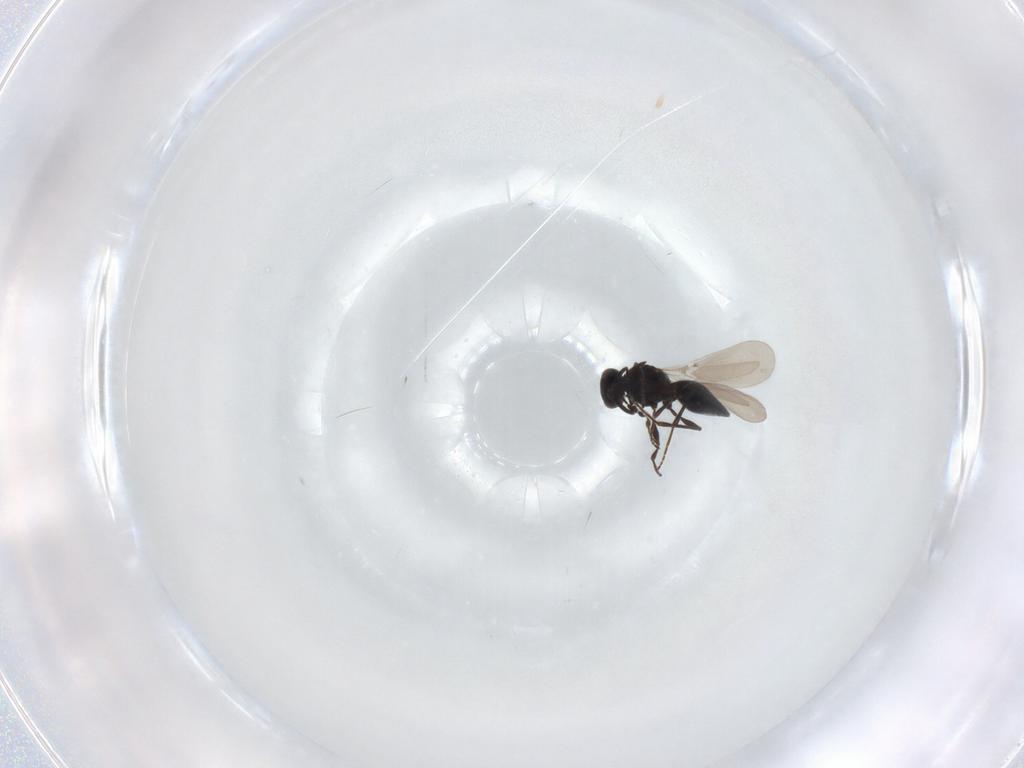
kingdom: Animalia
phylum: Arthropoda
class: Insecta
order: Hymenoptera
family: Platygastridae
